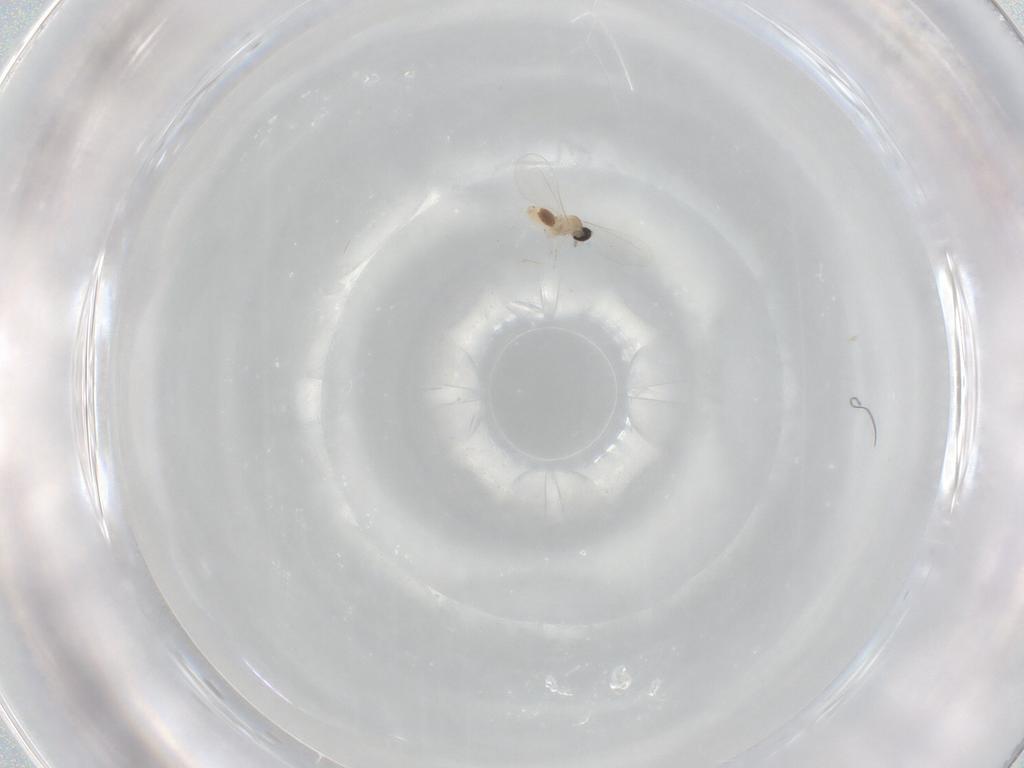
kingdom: Animalia
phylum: Arthropoda
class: Insecta
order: Diptera
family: Cecidomyiidae
